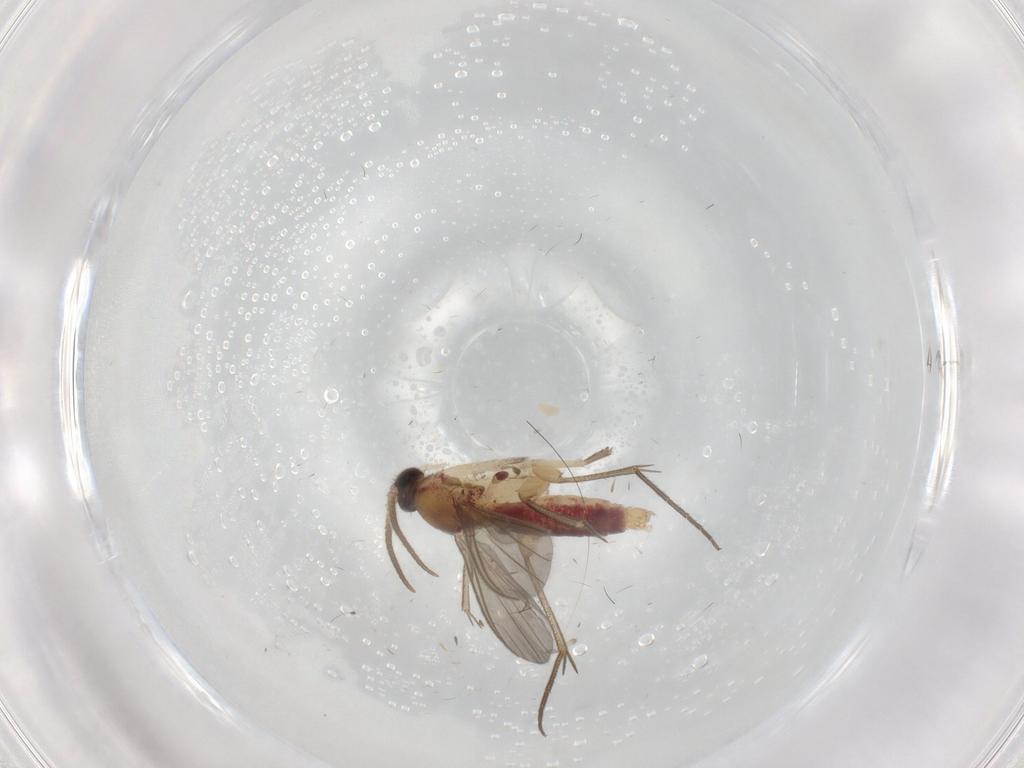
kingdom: Animalia
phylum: Arthropoda
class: Insecta
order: Diptera
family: Mycetophilidae
